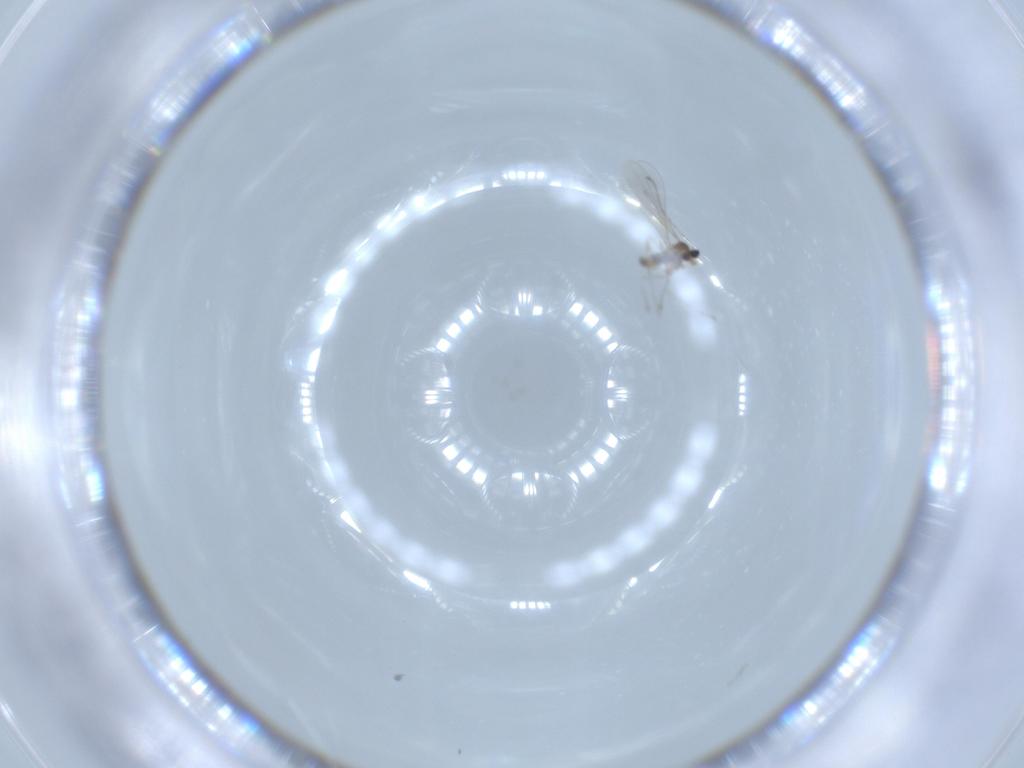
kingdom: Animalia
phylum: Arthropoda
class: Insecta
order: Diptera
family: Cecidomyiidae
